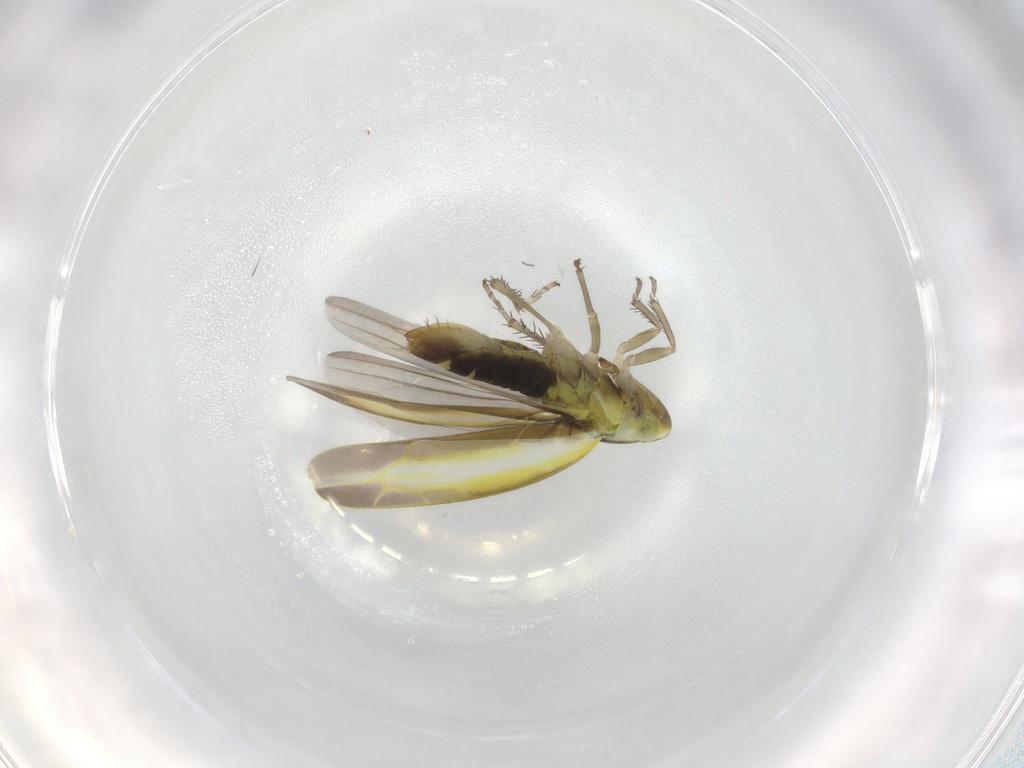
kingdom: Animalia
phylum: Arthropoda
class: Insecta
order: Hemiptera
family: Cicadellidae
